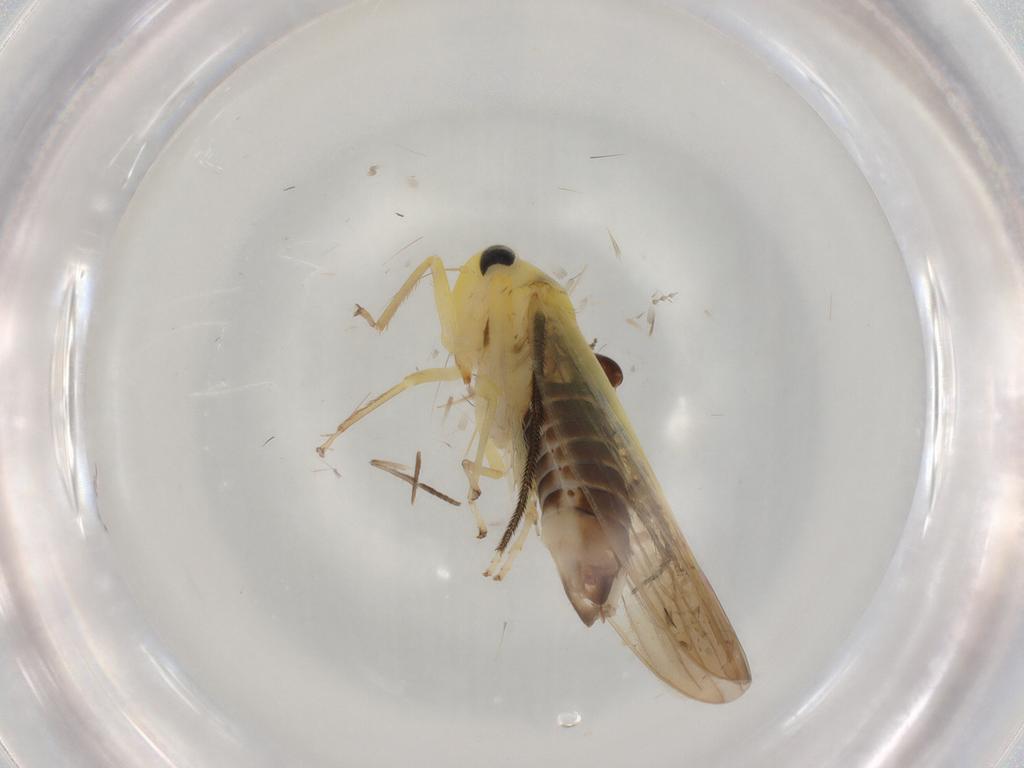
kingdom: Animalia
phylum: Arthropoda
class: Insecta
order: Hemiptera
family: Cicadellidae
